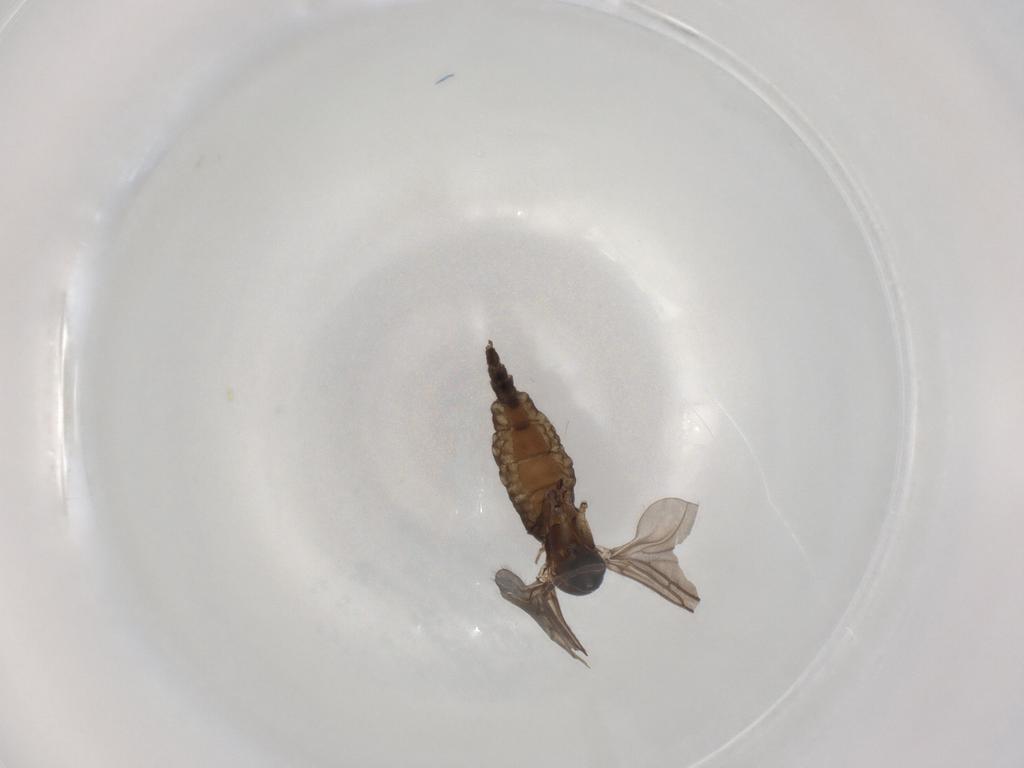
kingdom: Animalia
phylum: Arthropoda
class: Insecta
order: Diptera
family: Sciaridae
